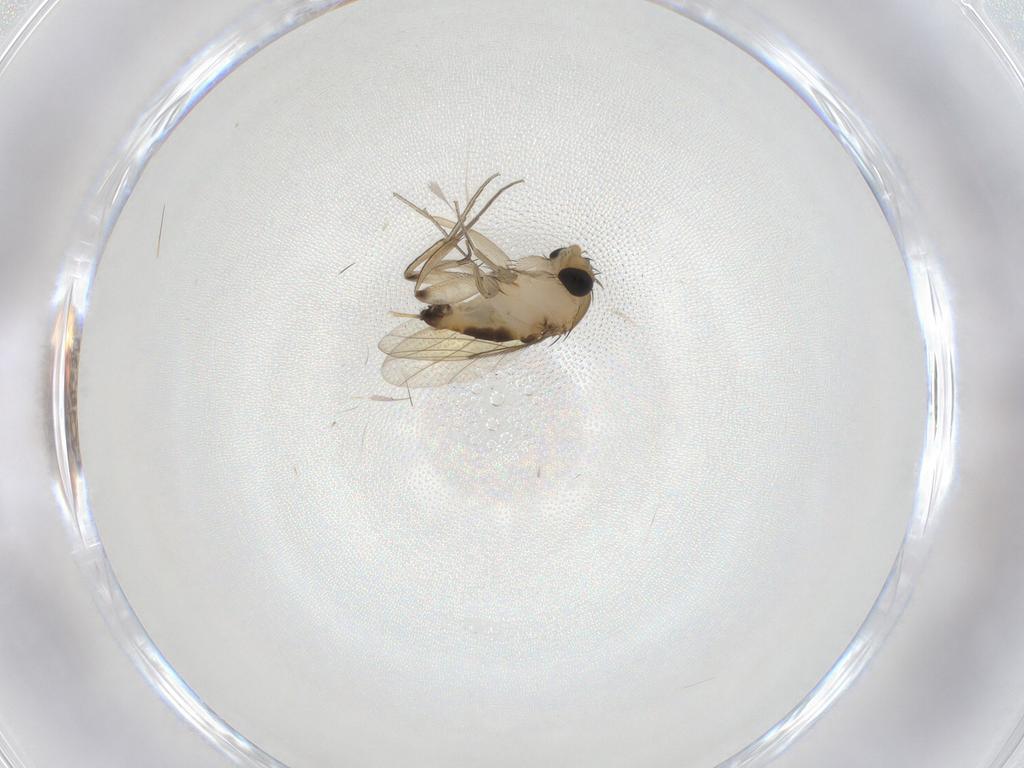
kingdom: Animalia
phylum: Arthropoda
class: Insecta
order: Diptera
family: Phoridae
